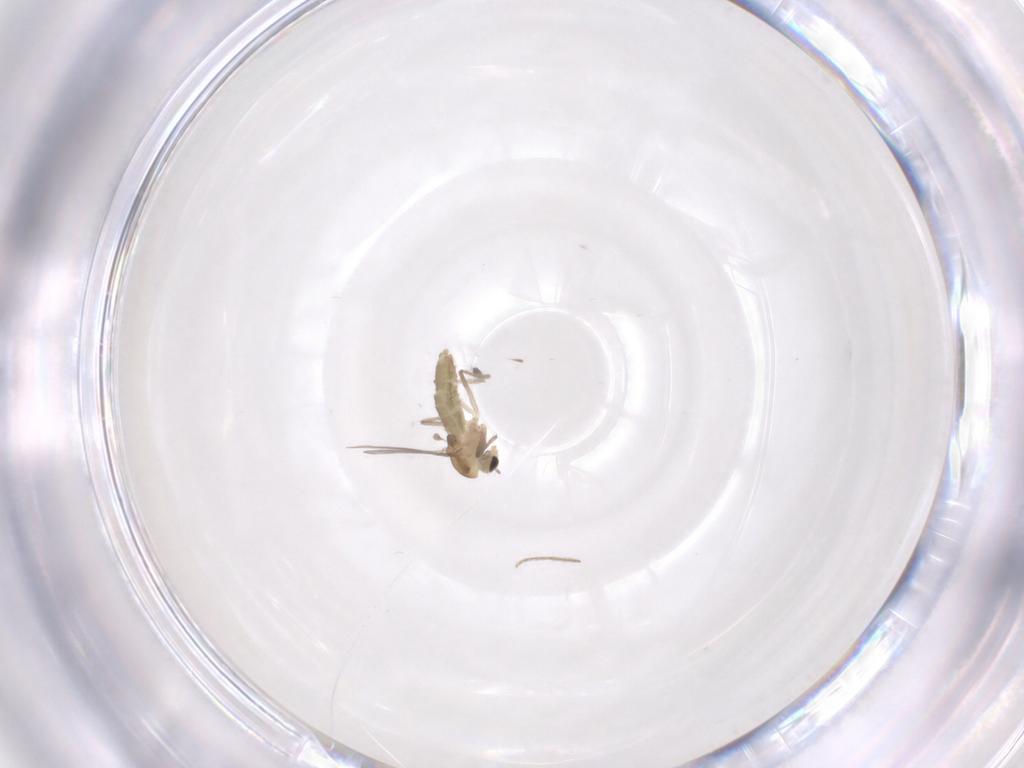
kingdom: Animalia
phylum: Arthropoda
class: Insecta
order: Diptera
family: Chironomidae
